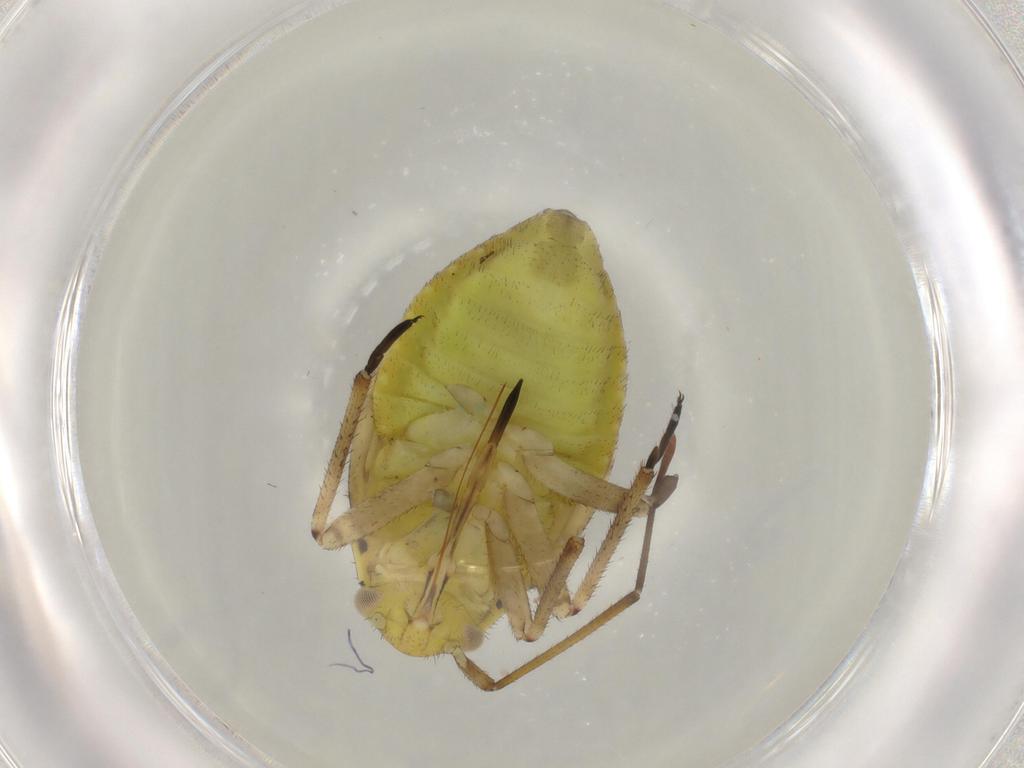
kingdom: Animalia
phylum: Arthropoda
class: Insecta
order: Hemiptera
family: Miridae
